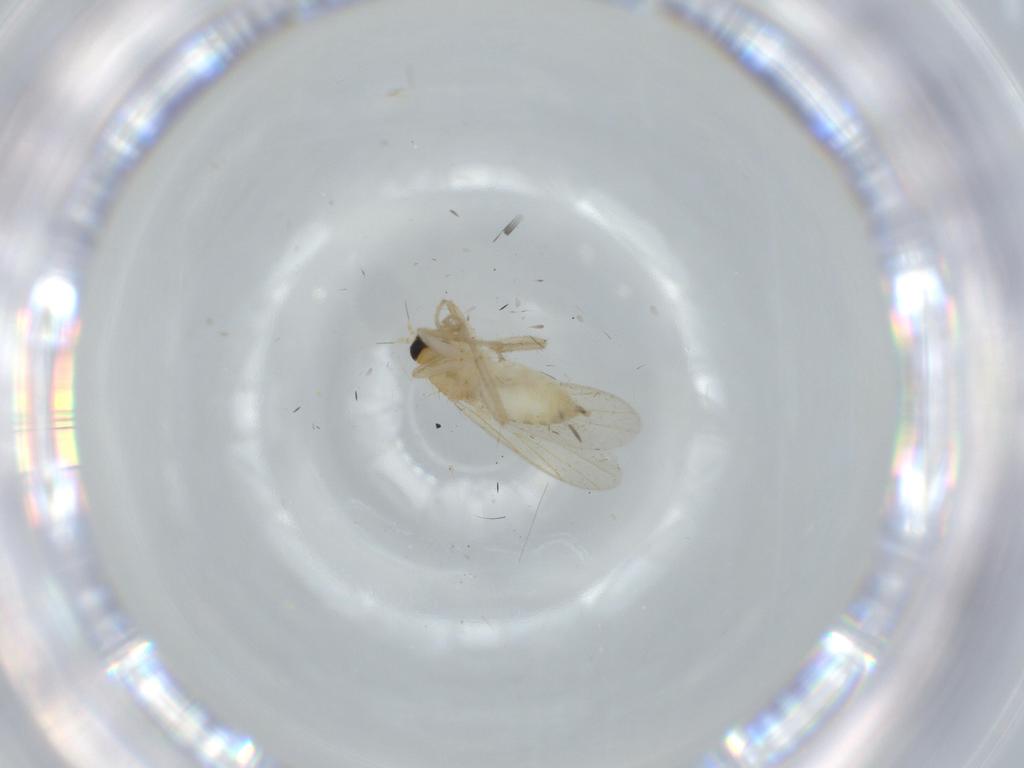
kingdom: Animalia
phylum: Arthropoda
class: Insecta
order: Diptera
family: Hybotidae
